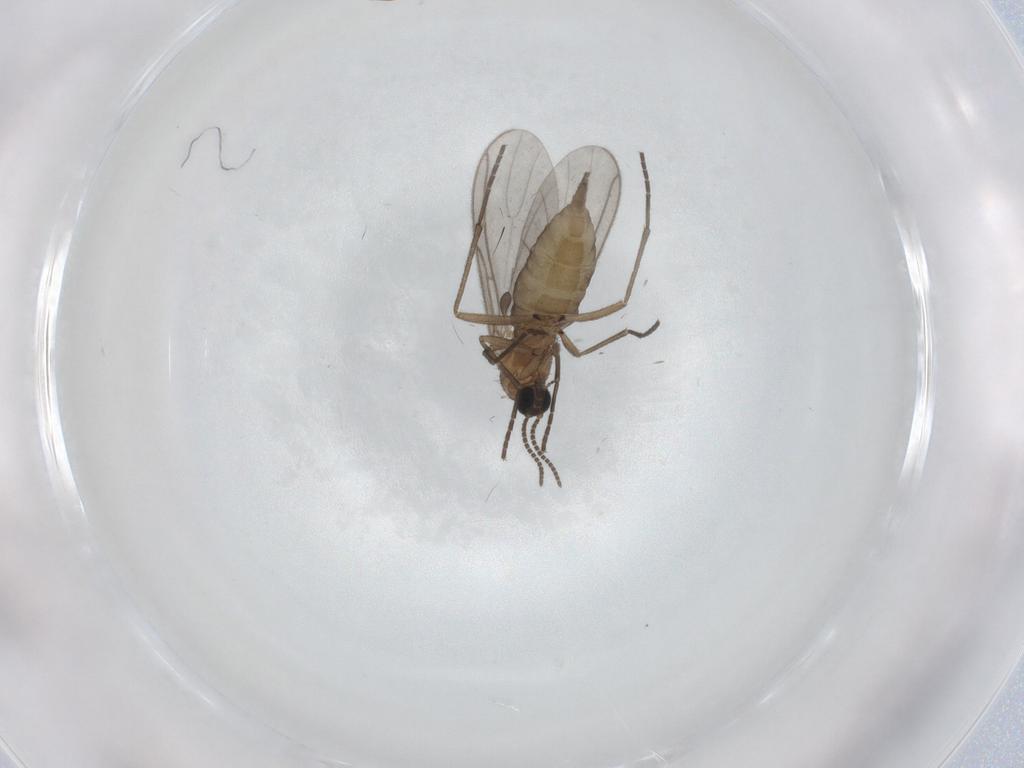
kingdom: Animalia
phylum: Arthropoda
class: Insecta
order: Diptera
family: Sciaridae
